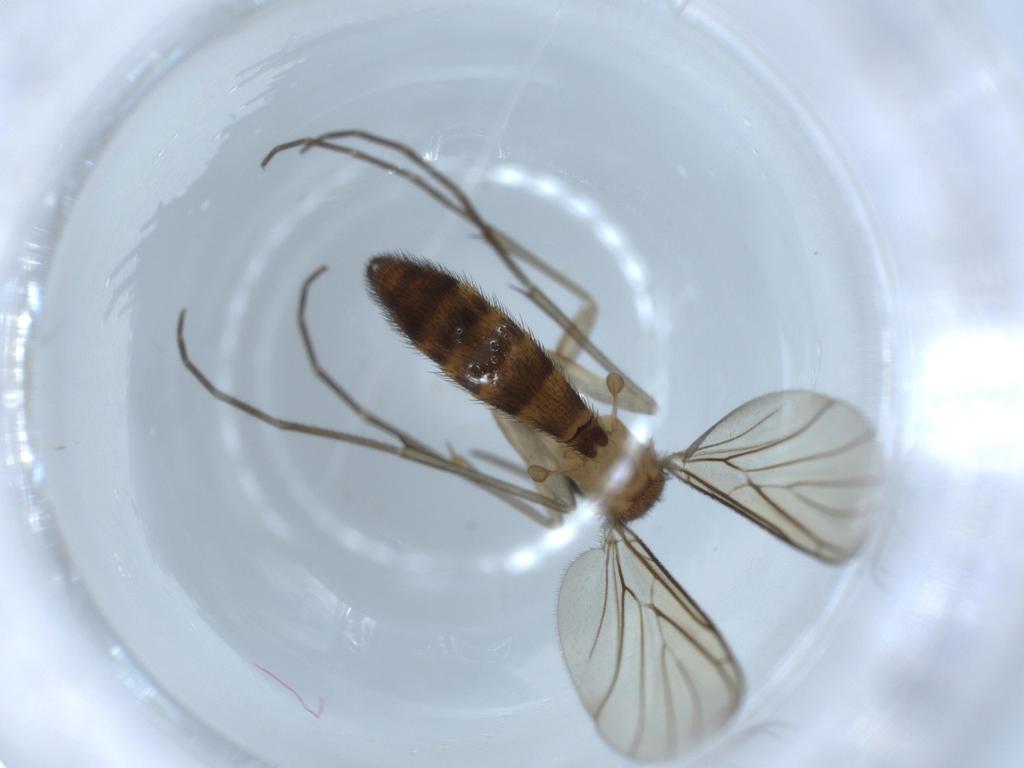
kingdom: Animalia
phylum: Arthropoda
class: Insecta
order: Diptera
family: Keroplatidae
